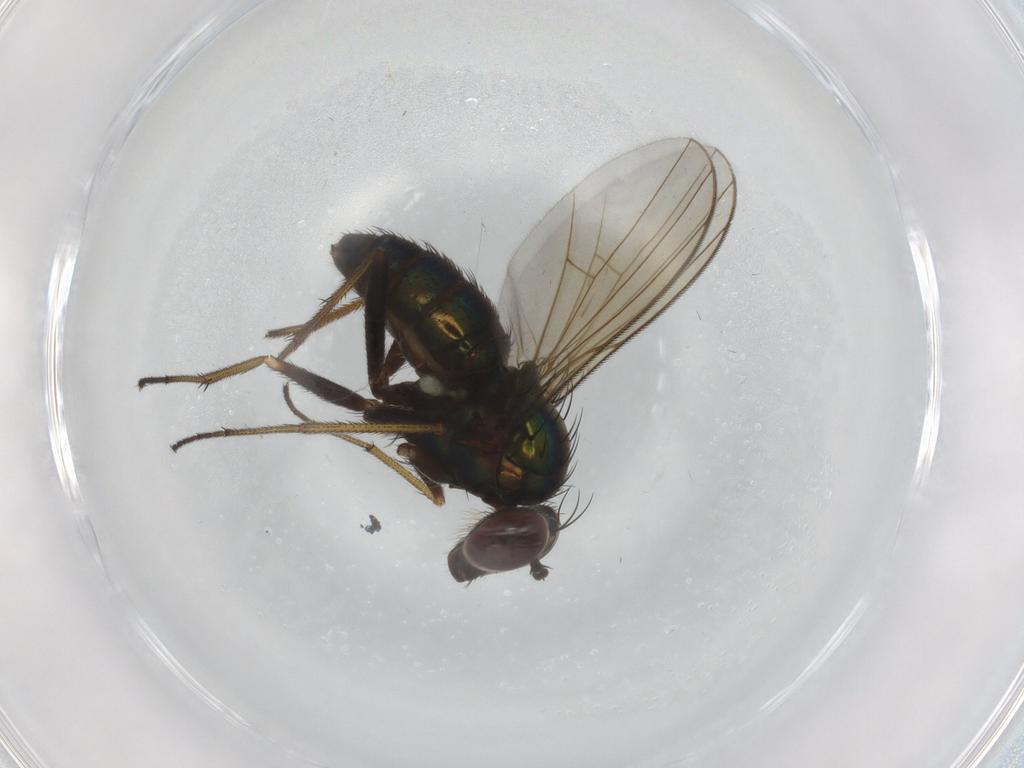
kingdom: Animalia
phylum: Arthropoda
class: Insecta
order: Diptera
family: Dolichopodidae
